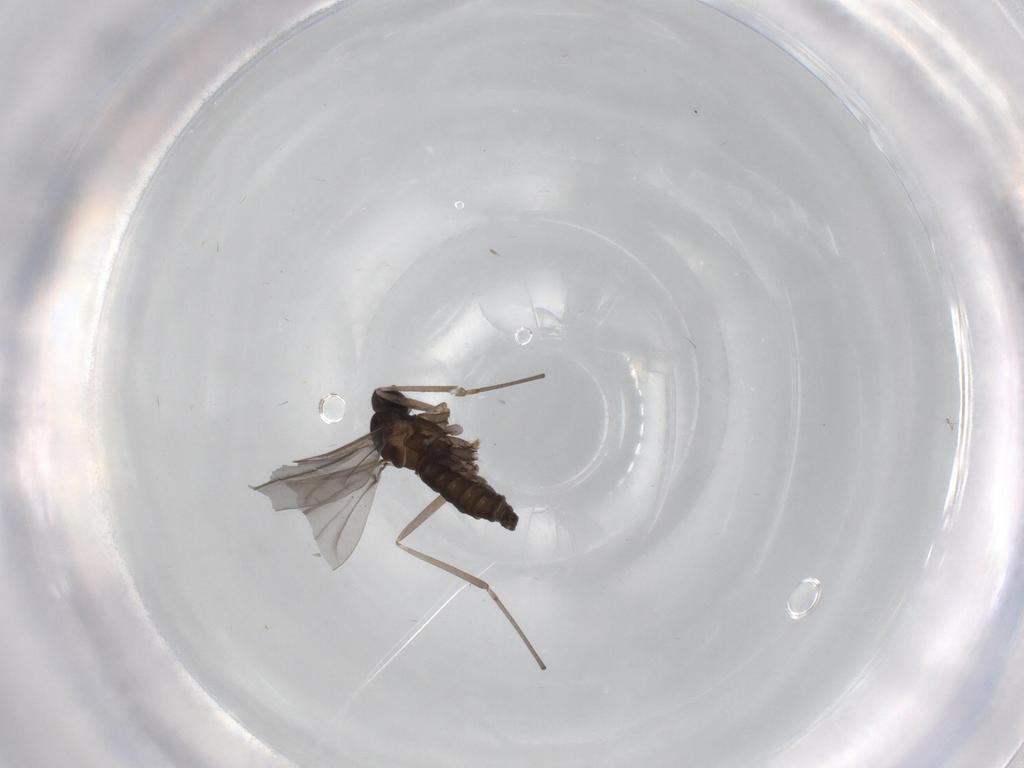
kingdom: Animalia
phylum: Arthropoda
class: Insecta
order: Diptera
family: Cecidomyiidae
